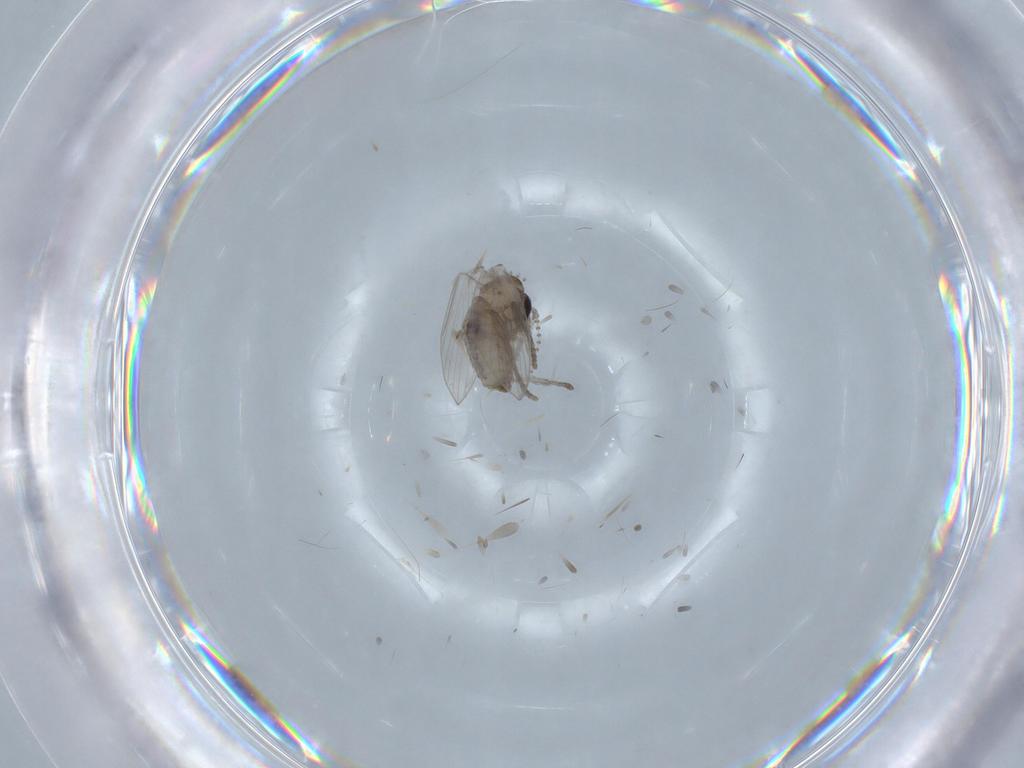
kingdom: Animalia
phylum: Arthropoda
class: Insecta
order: Diptera
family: Psychodidae
